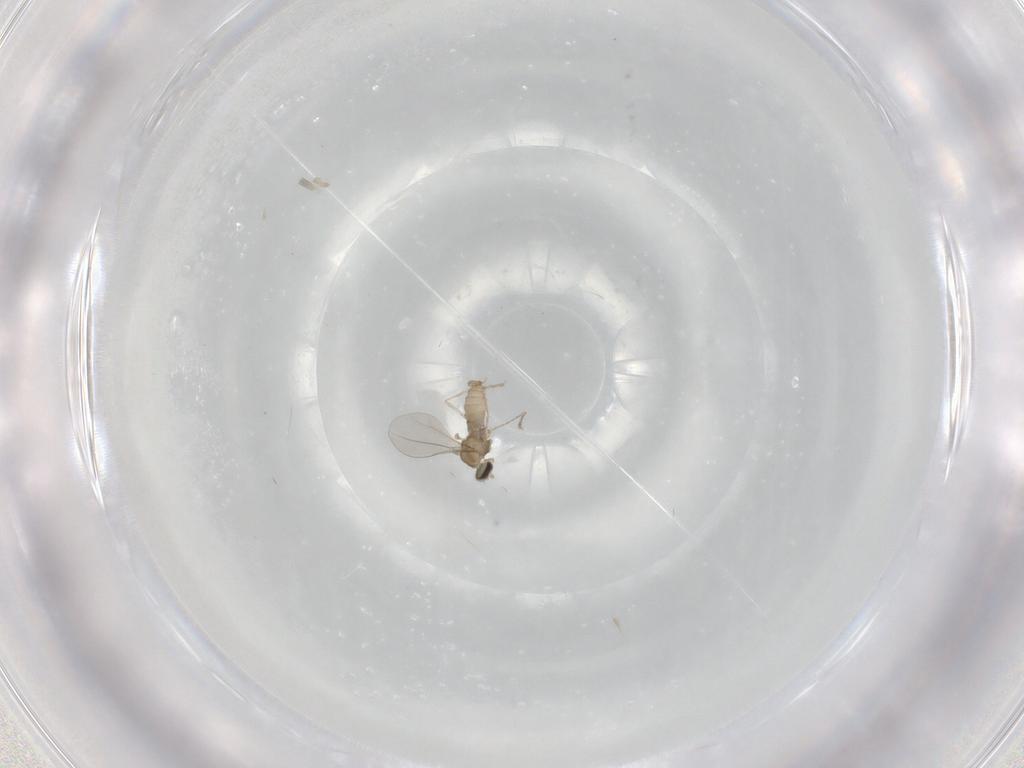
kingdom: Animalia
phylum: Arthropoda
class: Insecta
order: Diptera
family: Cecidomyiidae
